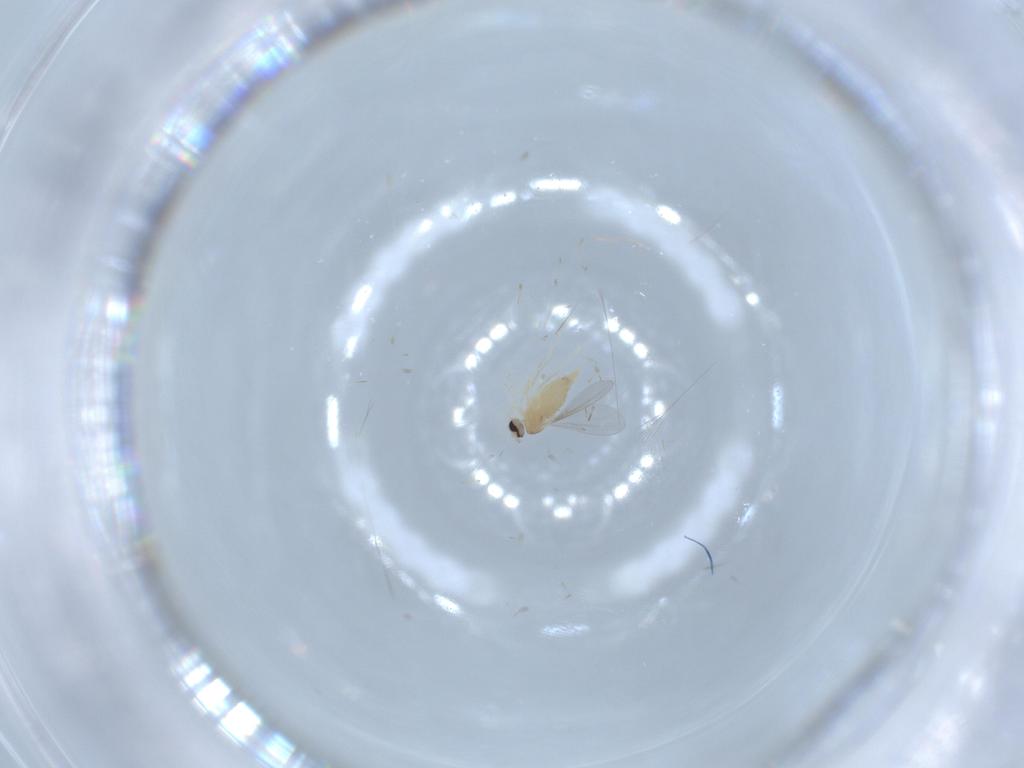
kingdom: Animalia
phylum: Arthropoda
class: Insecta
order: Diptera
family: Cecidomyiidae
